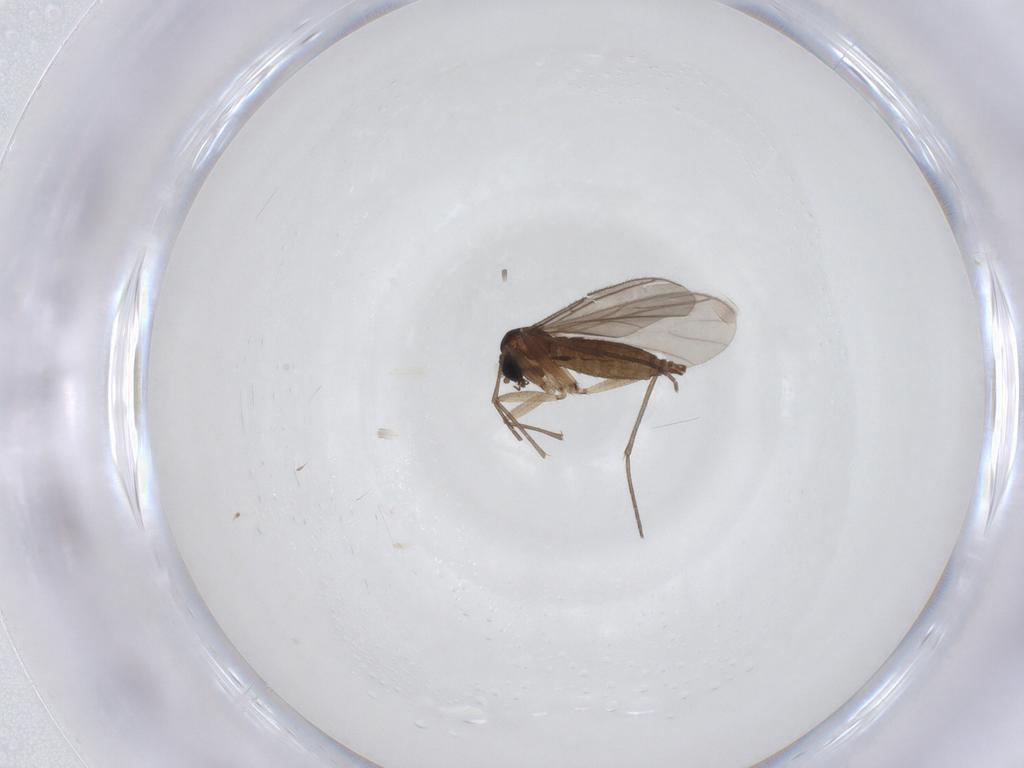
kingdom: Animalia
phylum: Arthropoda
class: Insecta
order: Diptera
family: Sciaridae
